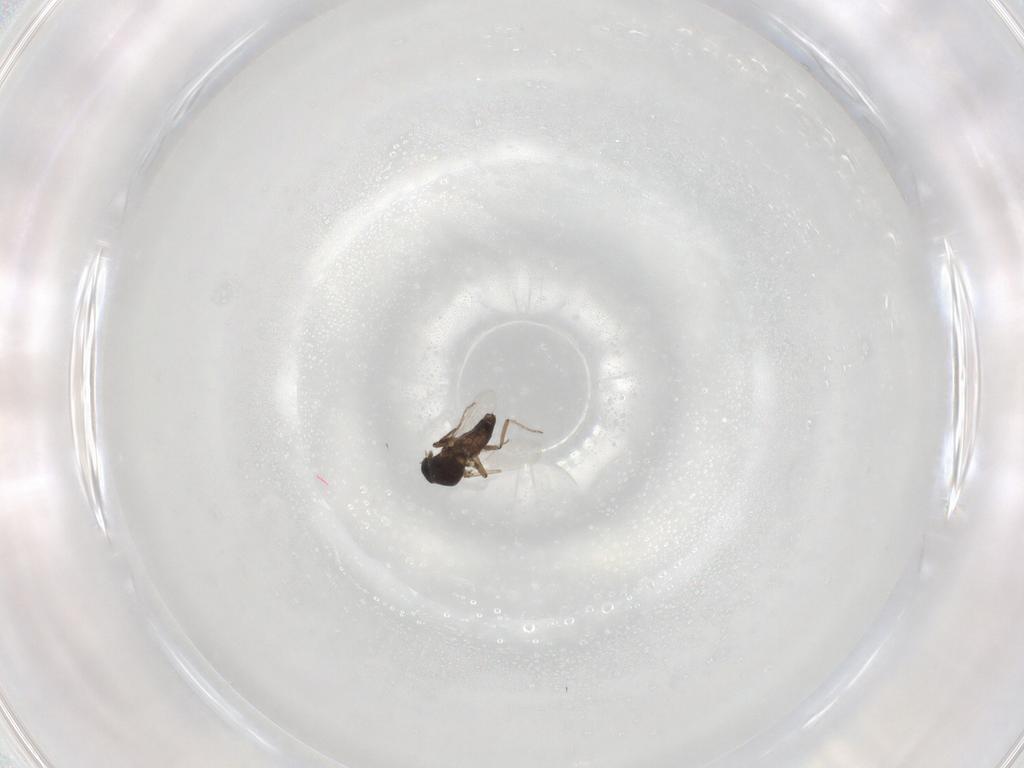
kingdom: Animalia
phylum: Arthropoda
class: Insecta
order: Diptera
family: Ceratopogonidae
